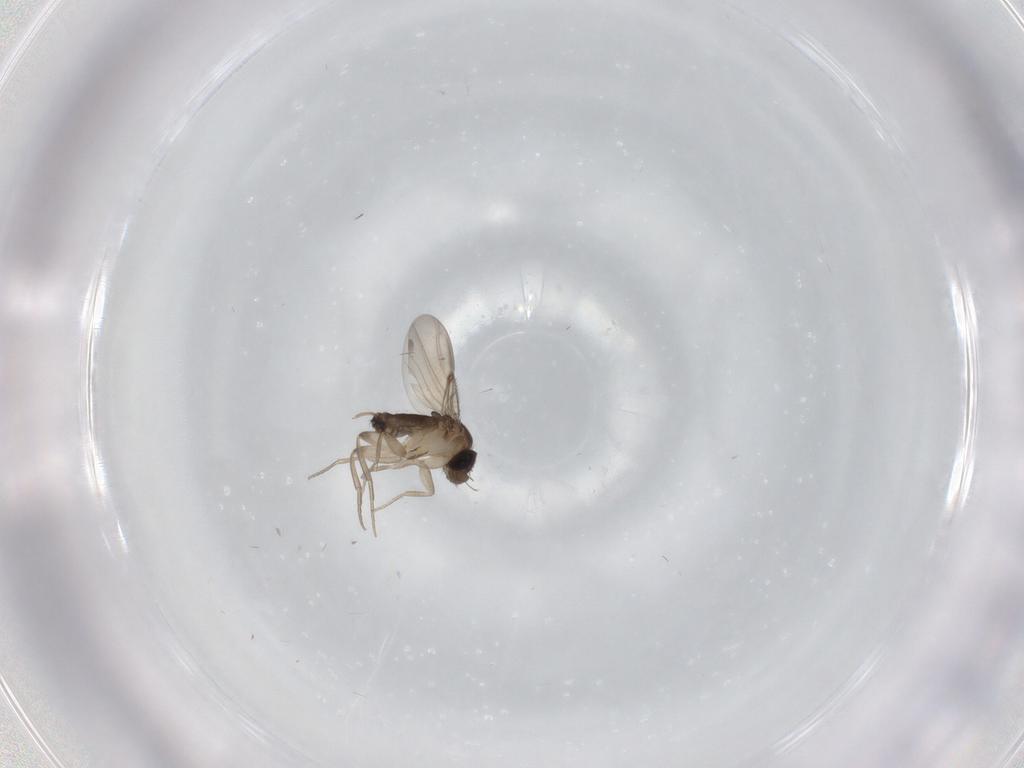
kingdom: Animalia
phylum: Arthropoda
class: Insecta
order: Diptera
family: Phoridae
